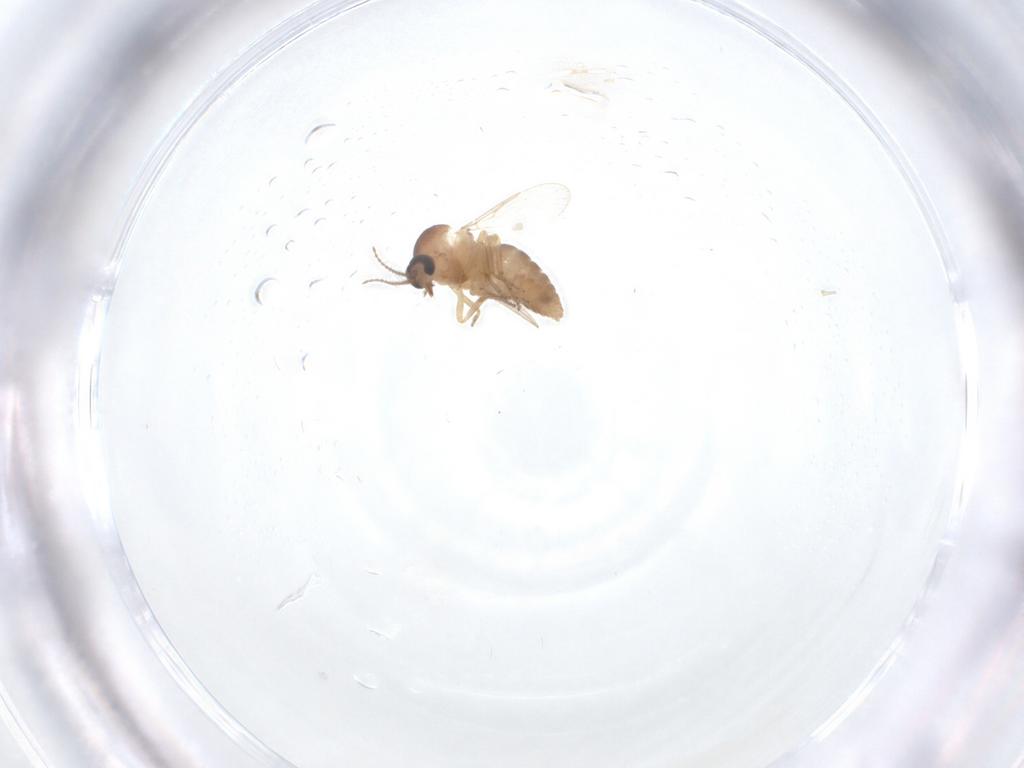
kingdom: Animalia
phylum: Arthropoda
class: Insecta
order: Diptera
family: Ceratopogonidae
